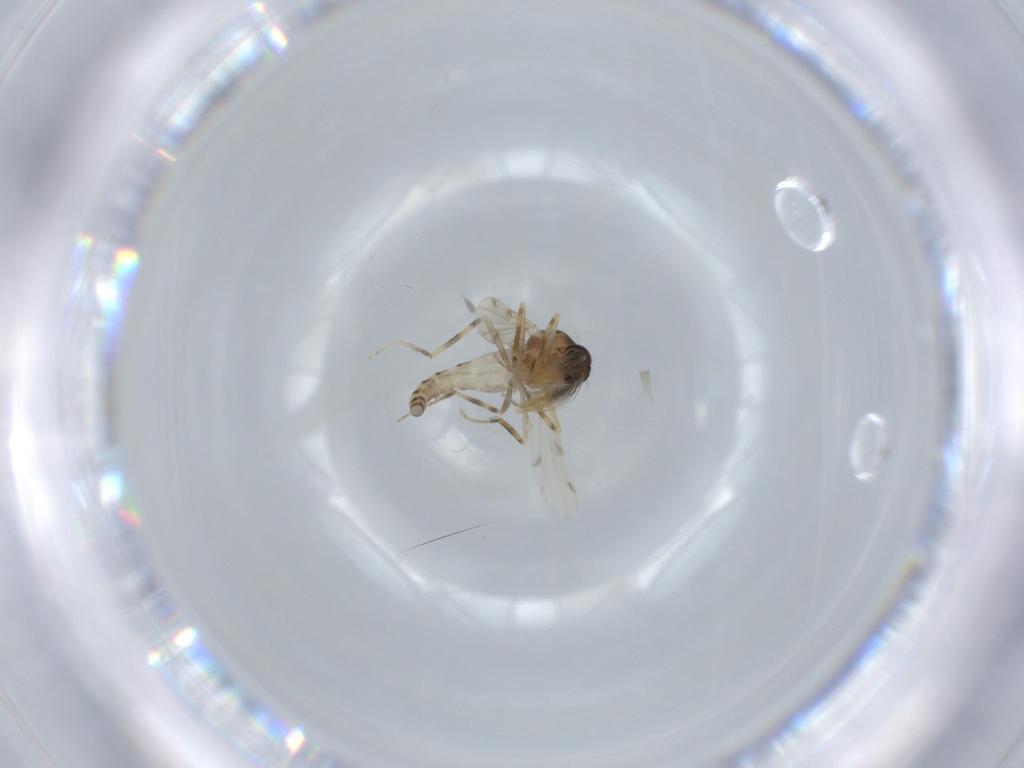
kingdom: Animalia
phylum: Arthropoda
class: Insecta
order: Diptera
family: Ceratopogonidae
